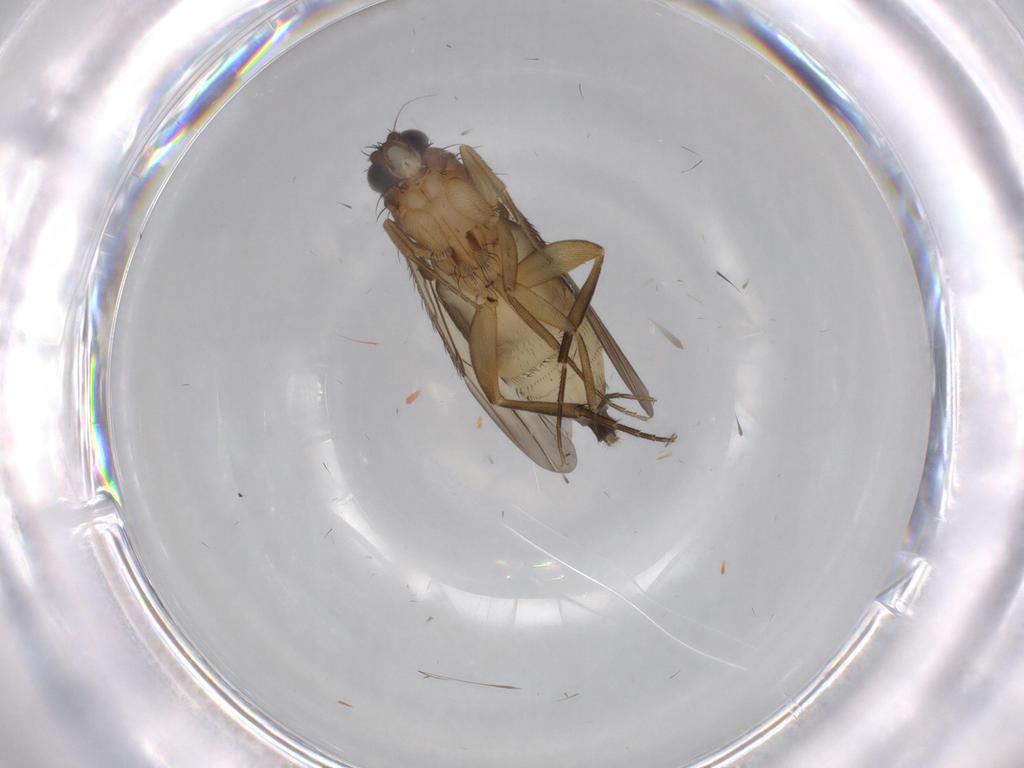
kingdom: Animalia
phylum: Arthropoda
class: Insecta
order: Diptera
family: Phoridae
